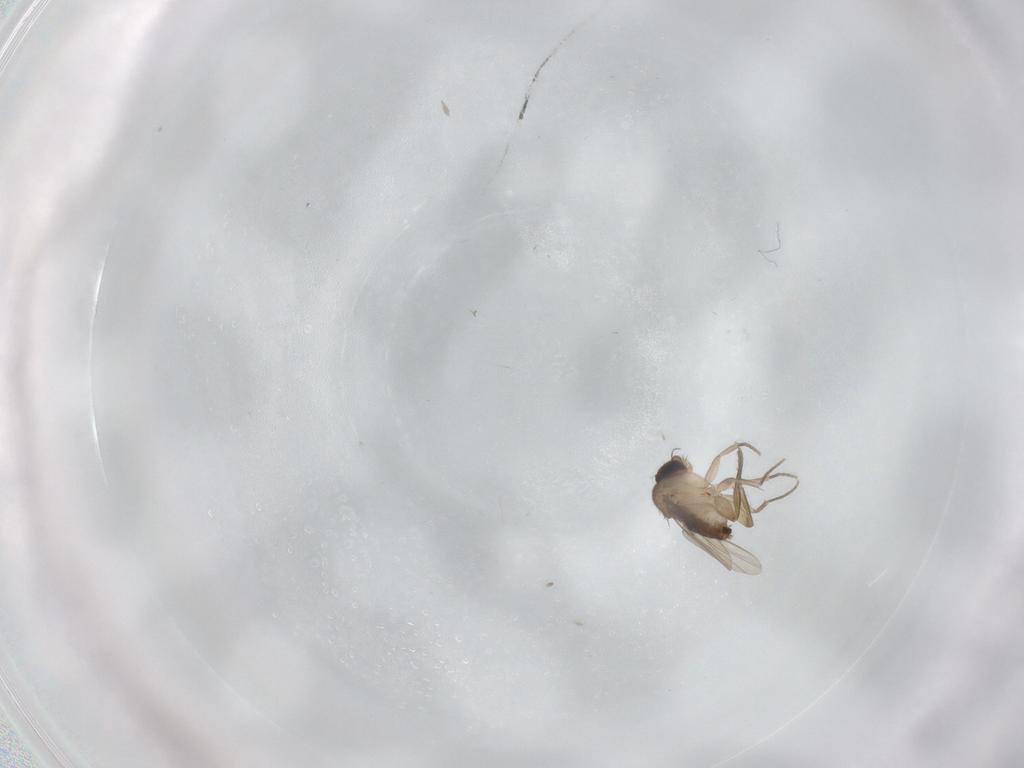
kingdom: Animalia
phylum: Arthropoda
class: Insecta
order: Diptera
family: Phoridae
